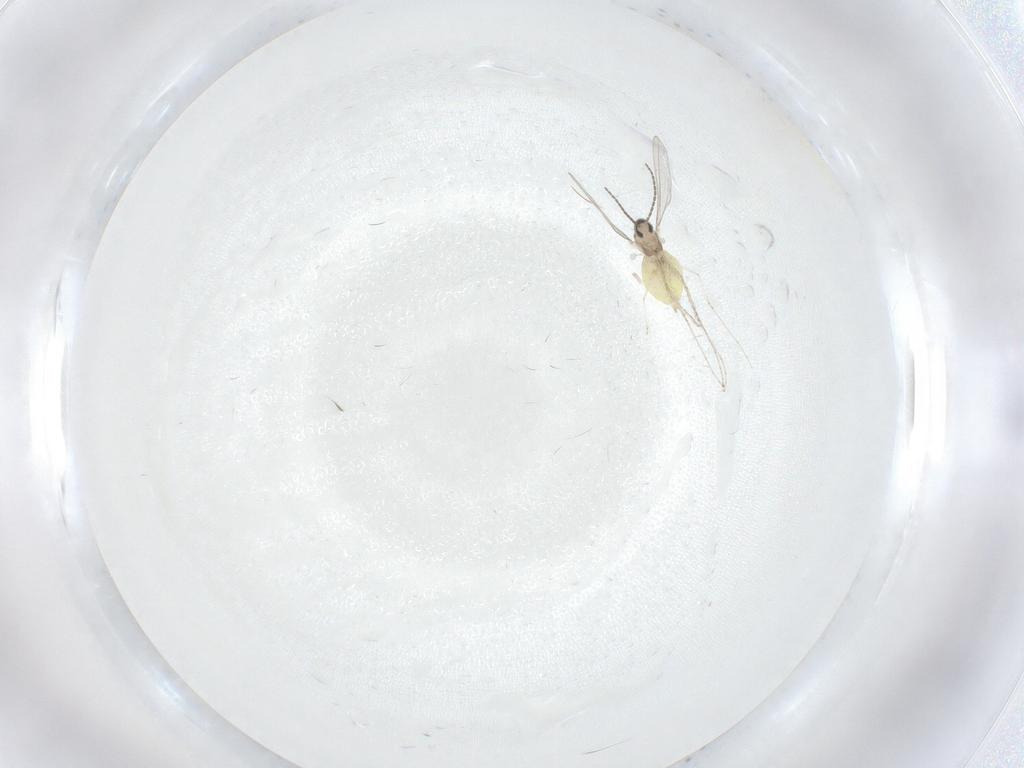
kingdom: Animalia
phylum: Arthropoda
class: Insecta
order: Diptera
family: Cecidomyiidae
